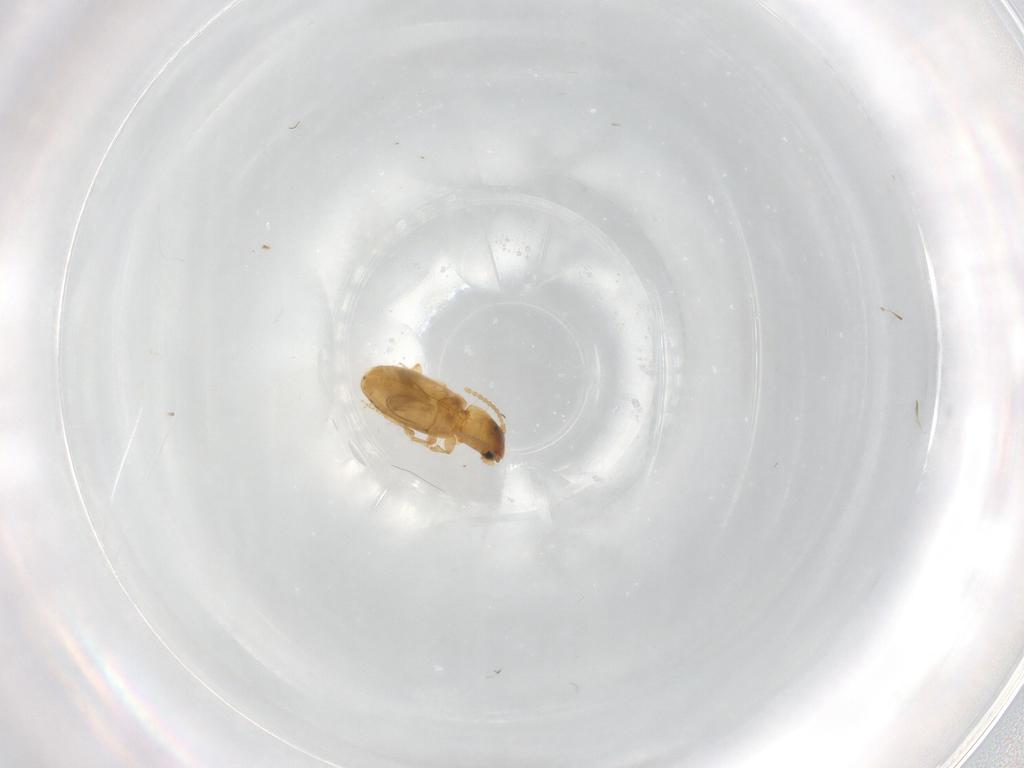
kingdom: Animalia
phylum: Arthropoda
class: Insecta
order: Coleoptera
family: Carabidae
